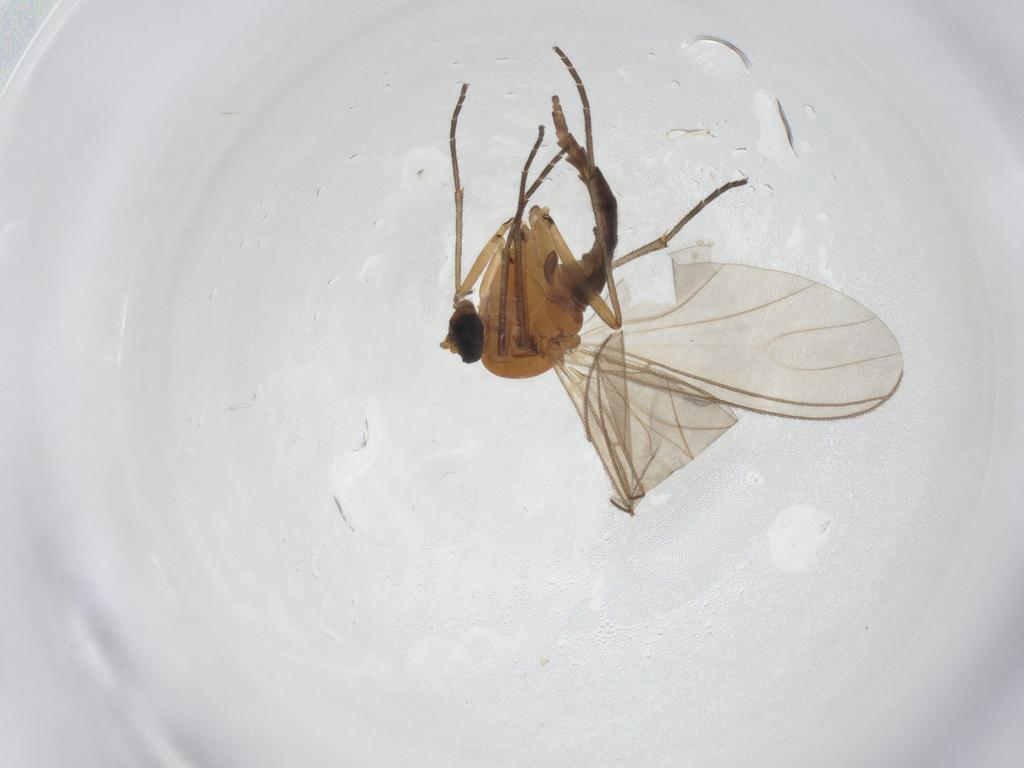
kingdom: Animalia
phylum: Arthropoda
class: Insecta
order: Diptera
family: Sciaridae
